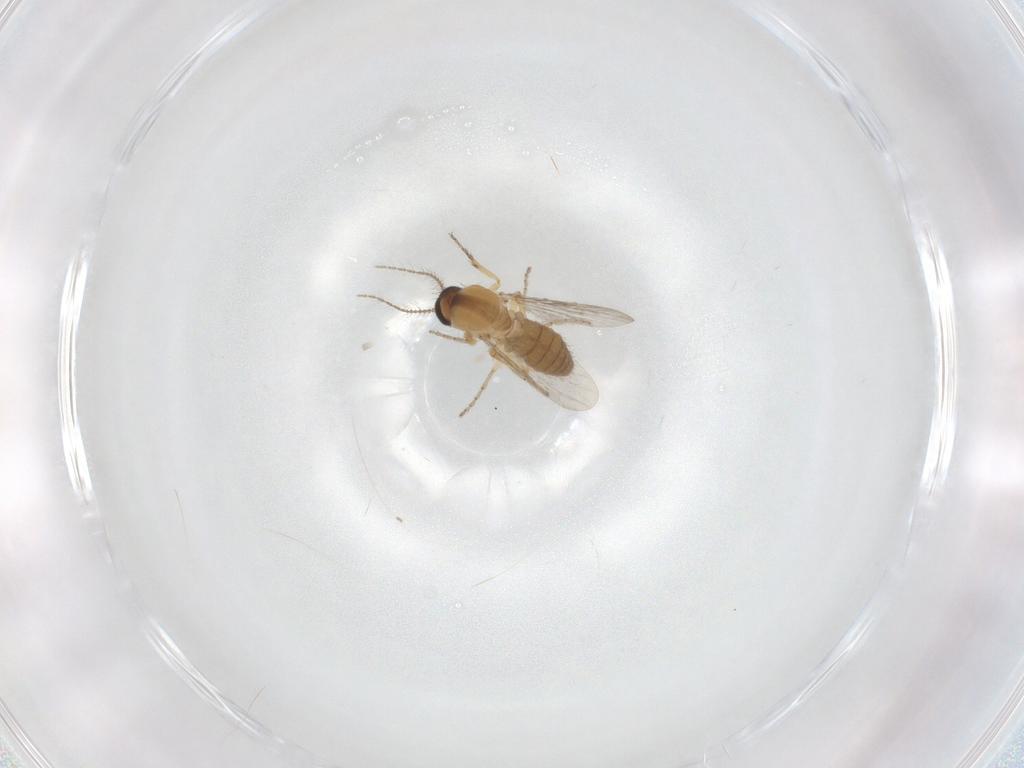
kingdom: Animalia
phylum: Arthropoda
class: Insecta
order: Diptera
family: Ceratopogonidae
